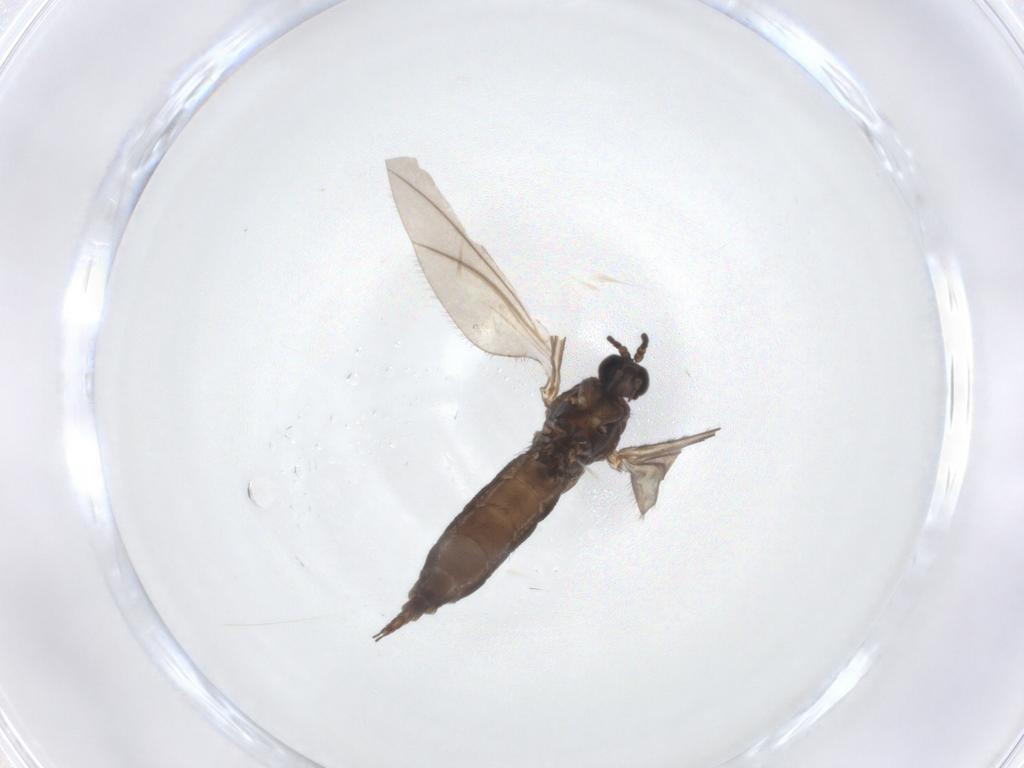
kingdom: Animalia
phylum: Arthropoda
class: Insecta
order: Diptera
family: Sciaridae
